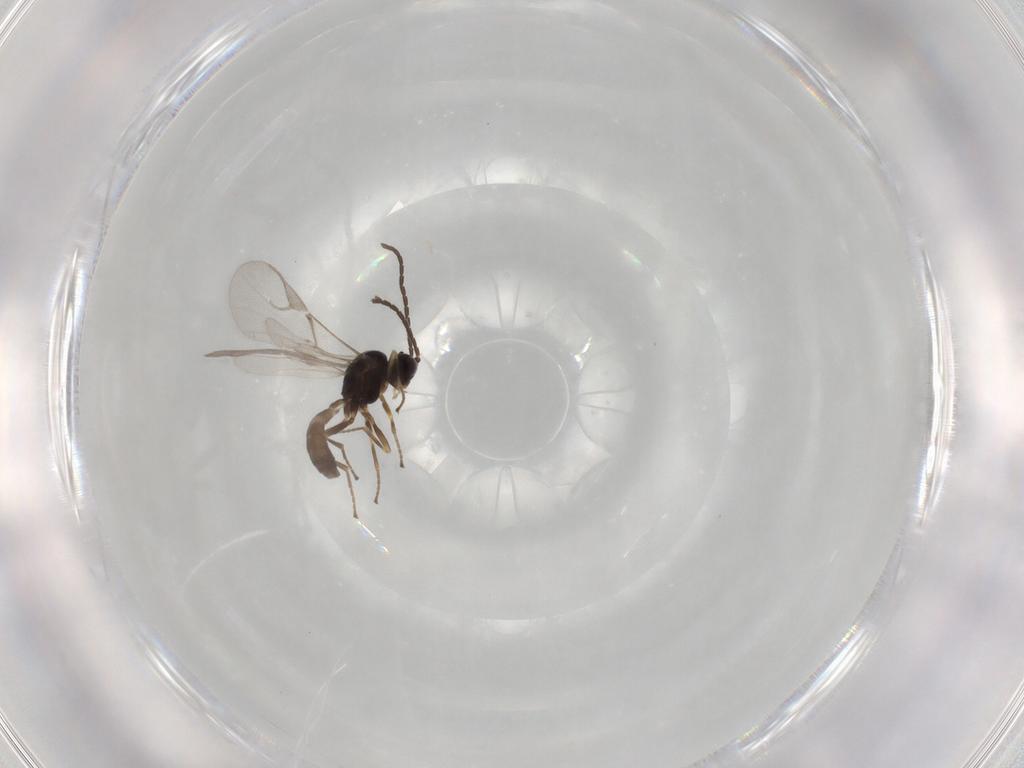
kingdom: Animalia
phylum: Arthropoda
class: Insecta
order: Hymenoptera
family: Braconidae
